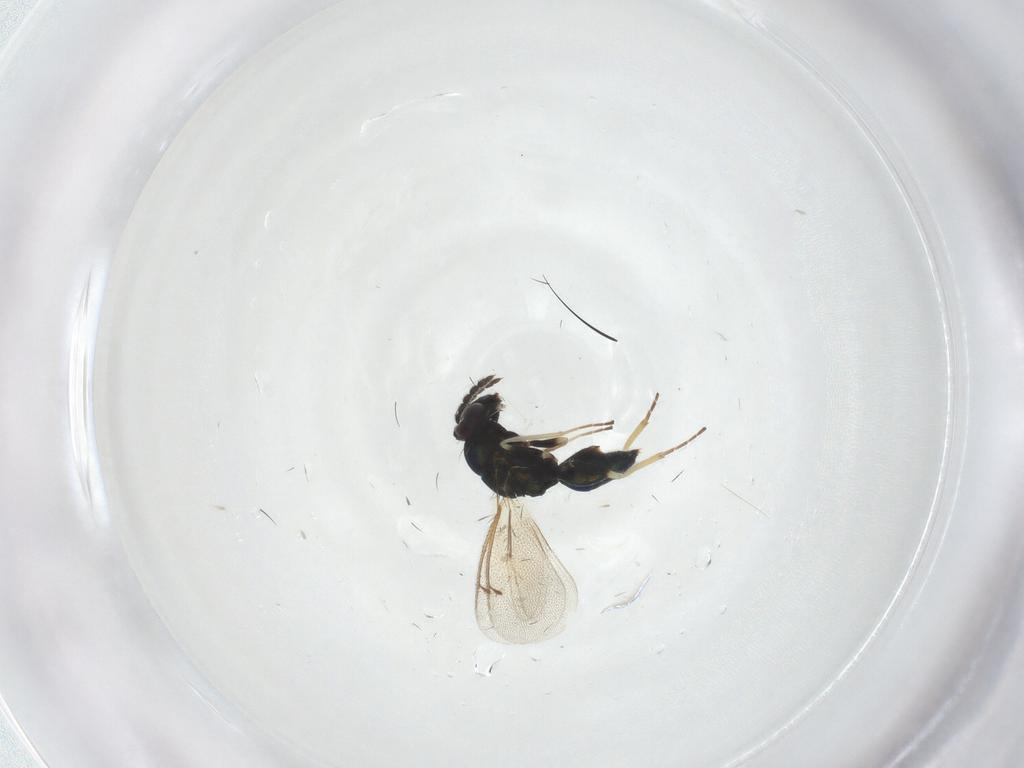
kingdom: Animalia
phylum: Arthropoda
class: Insecta
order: Hymenoptera
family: Eulophidae
